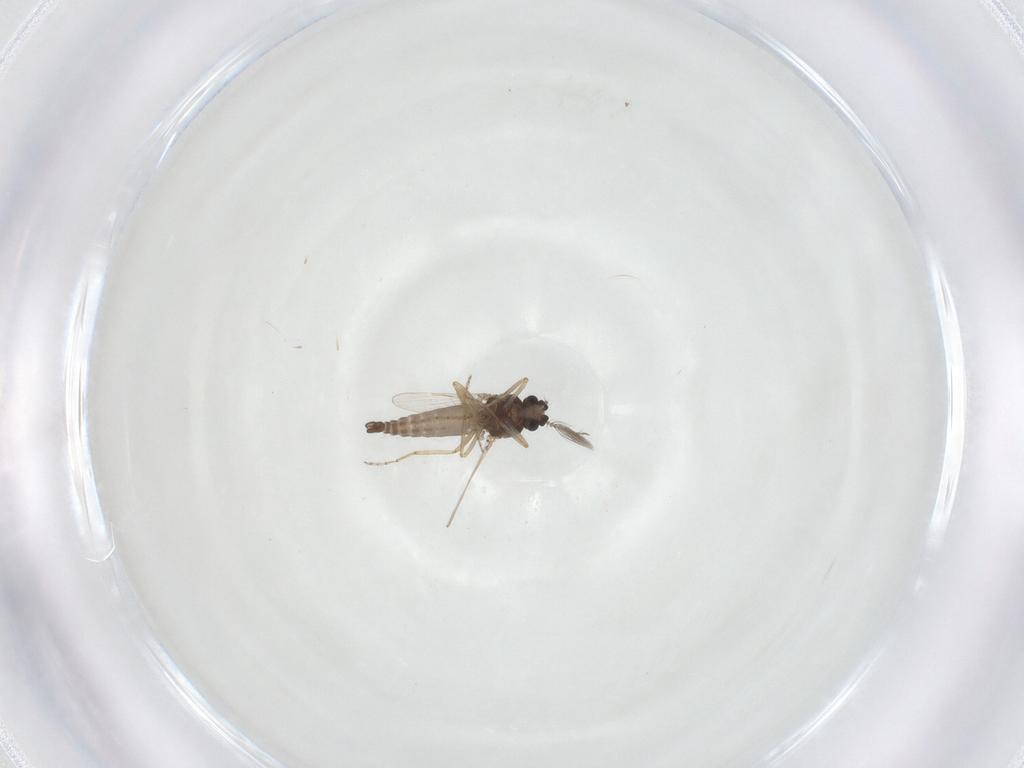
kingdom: Animalia
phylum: Arthropoda
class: Insecta
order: Diptera
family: Ceratopogonidae
